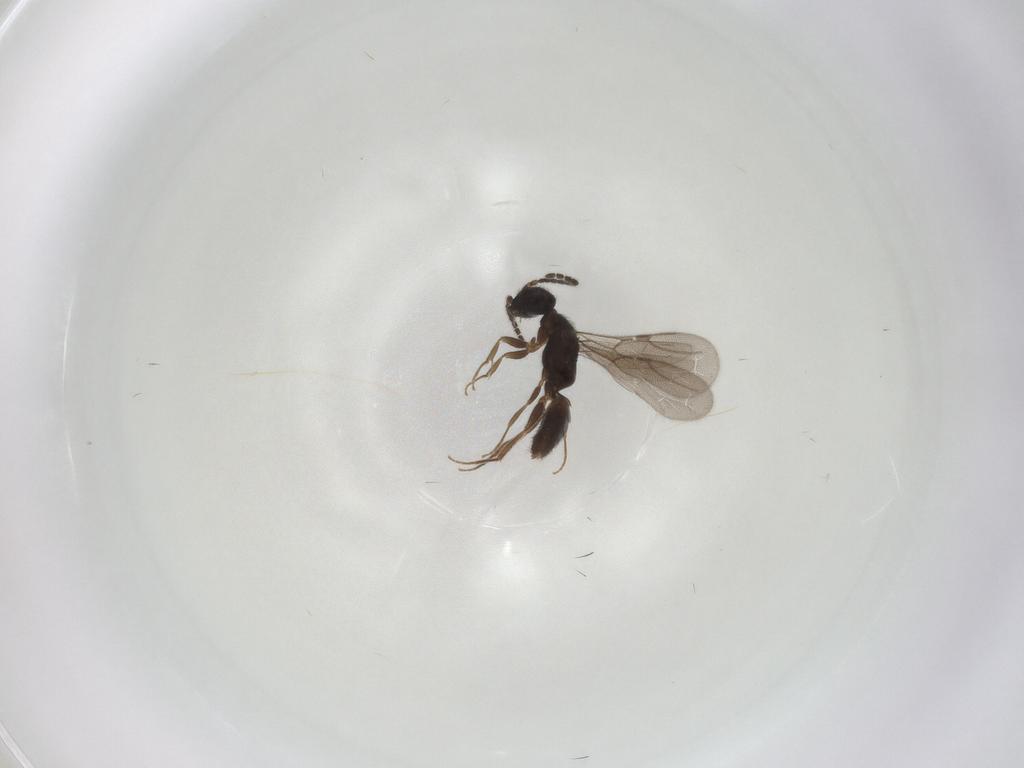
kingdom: Animalia
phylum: Arthropoda
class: Insecta
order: Hymenoptera
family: Bethylidae
